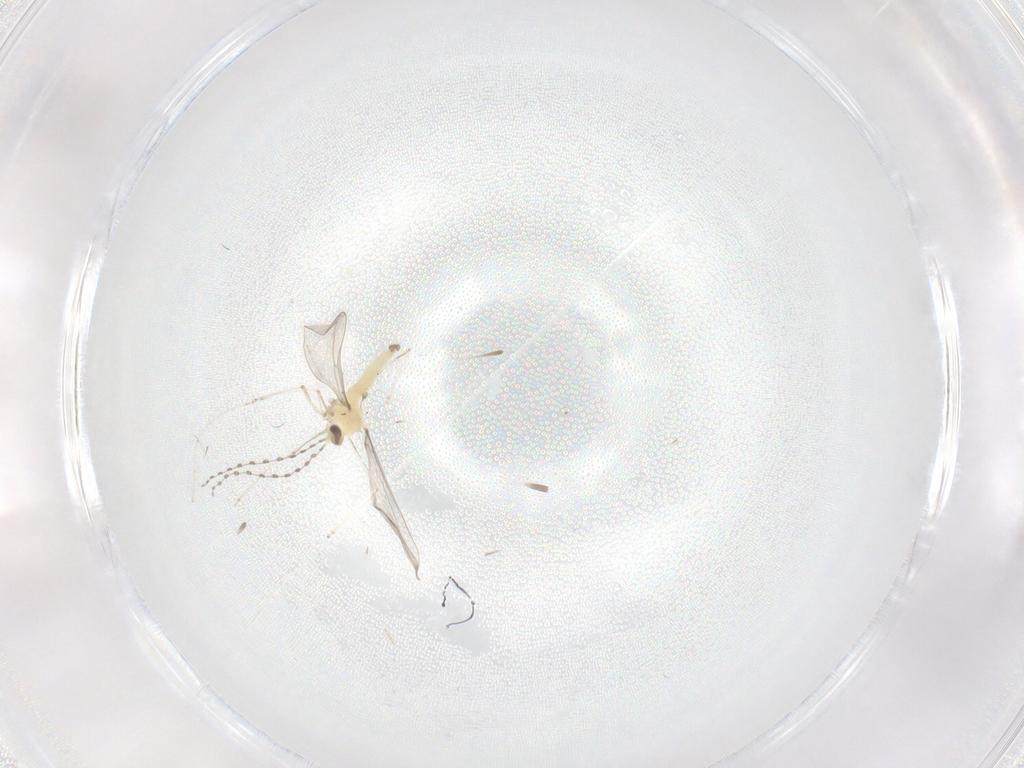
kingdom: Animalia
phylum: Arthropoda
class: Insecta
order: Diptera
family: Cecidomyiidae
